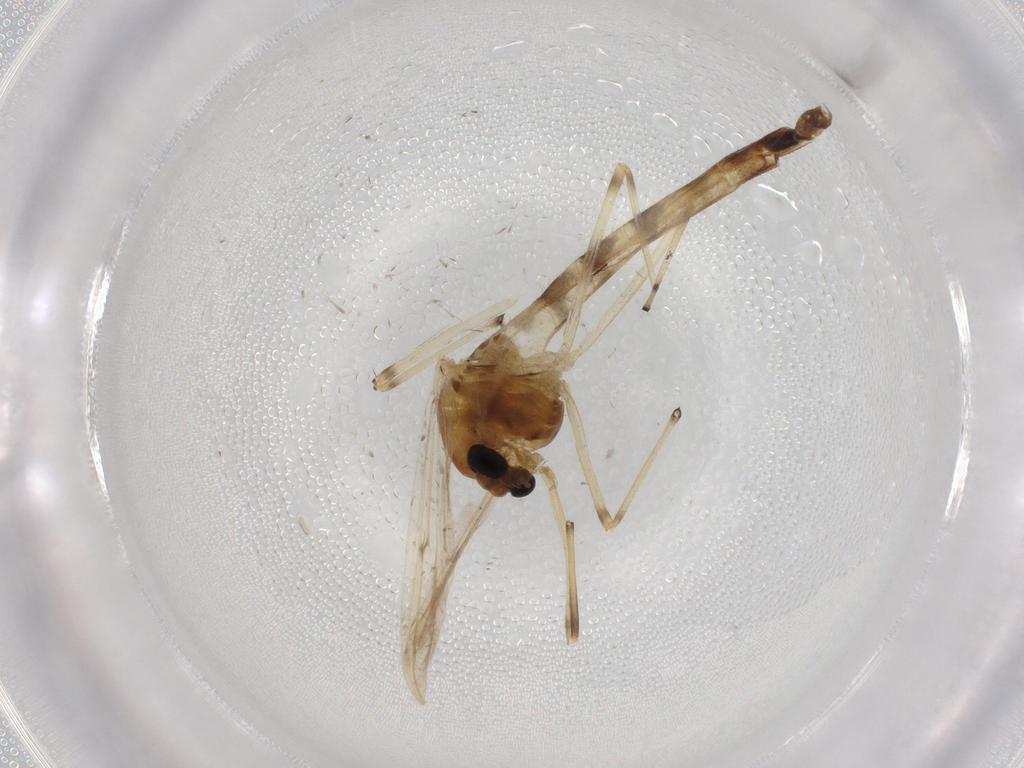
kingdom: Animalia
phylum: Arthropoda
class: Insecta
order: Diptera
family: Chironomidae
